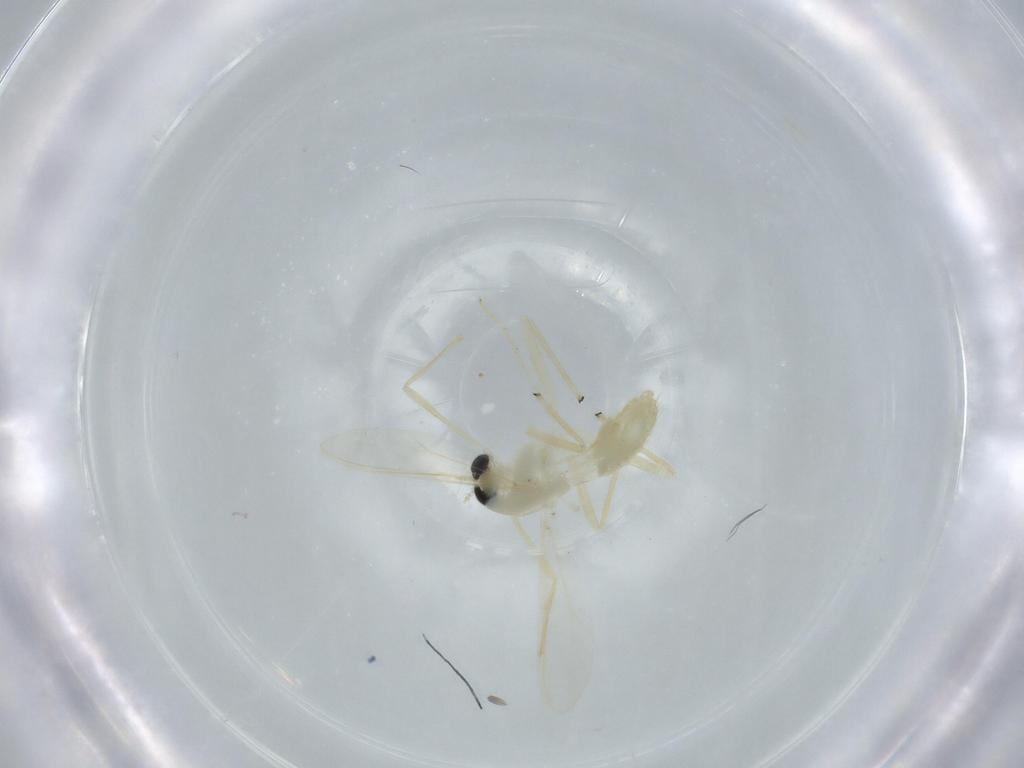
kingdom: Animalia
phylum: Arthropoda
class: Insecta
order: Diptera
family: Chironomidae
